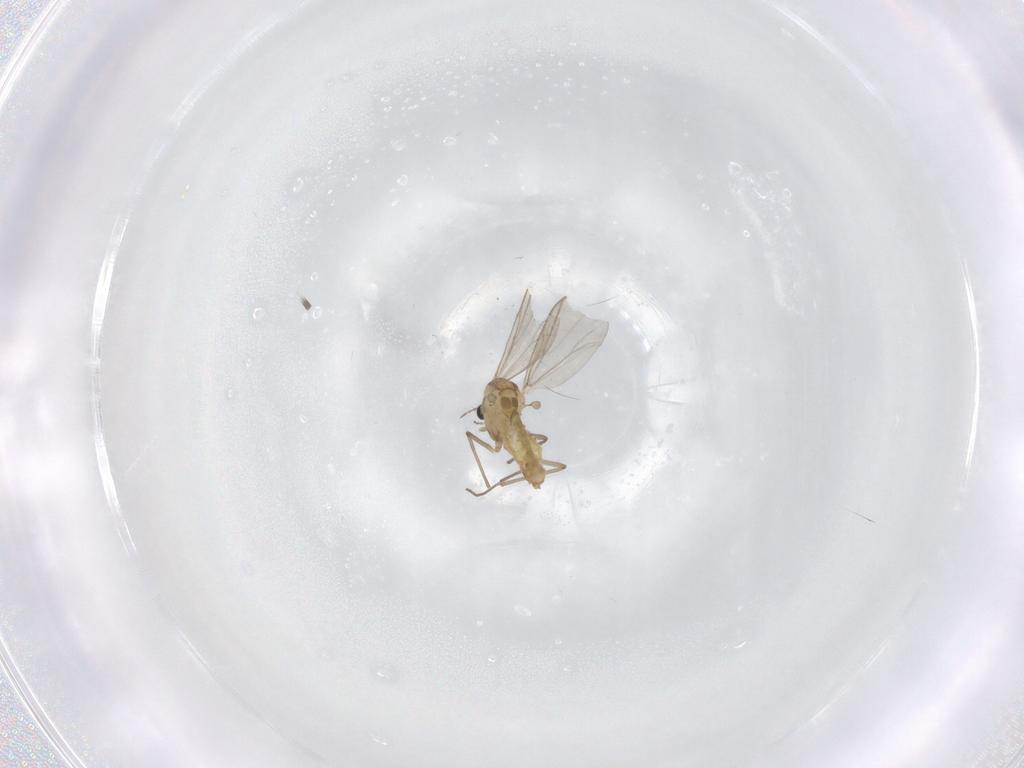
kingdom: Animalia
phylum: Arthropoda
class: Insecta
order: Diptera
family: Chironomidae
